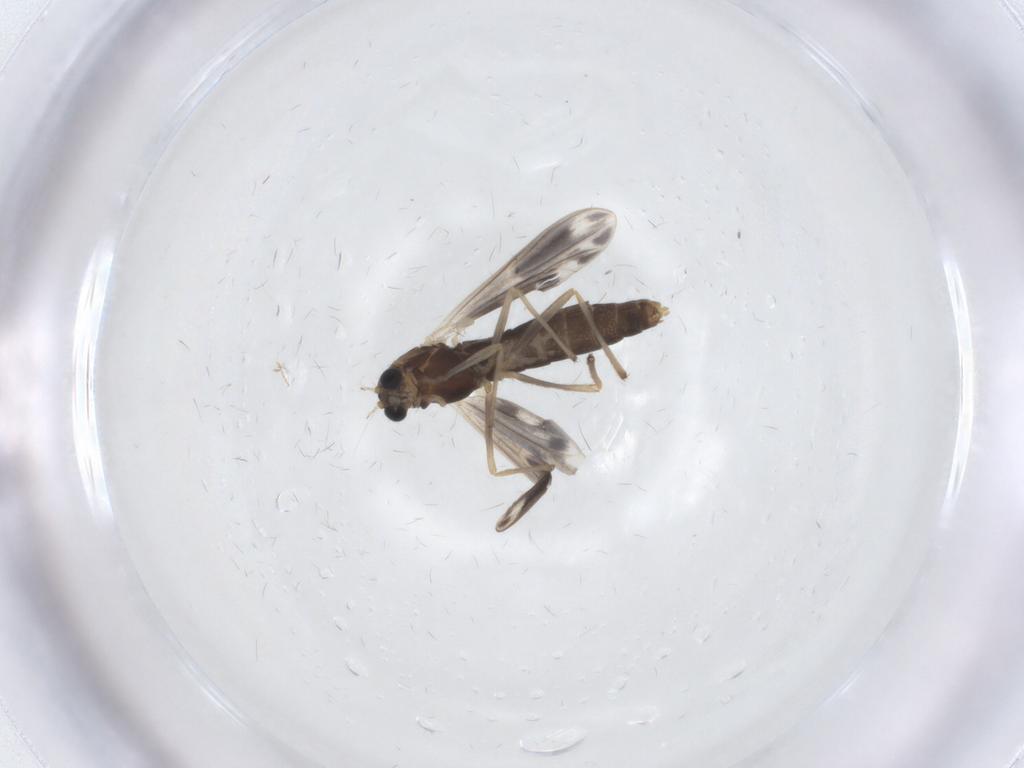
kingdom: Animalia
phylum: Arthropoda
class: Insecta
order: Diptera
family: Chironomidae
